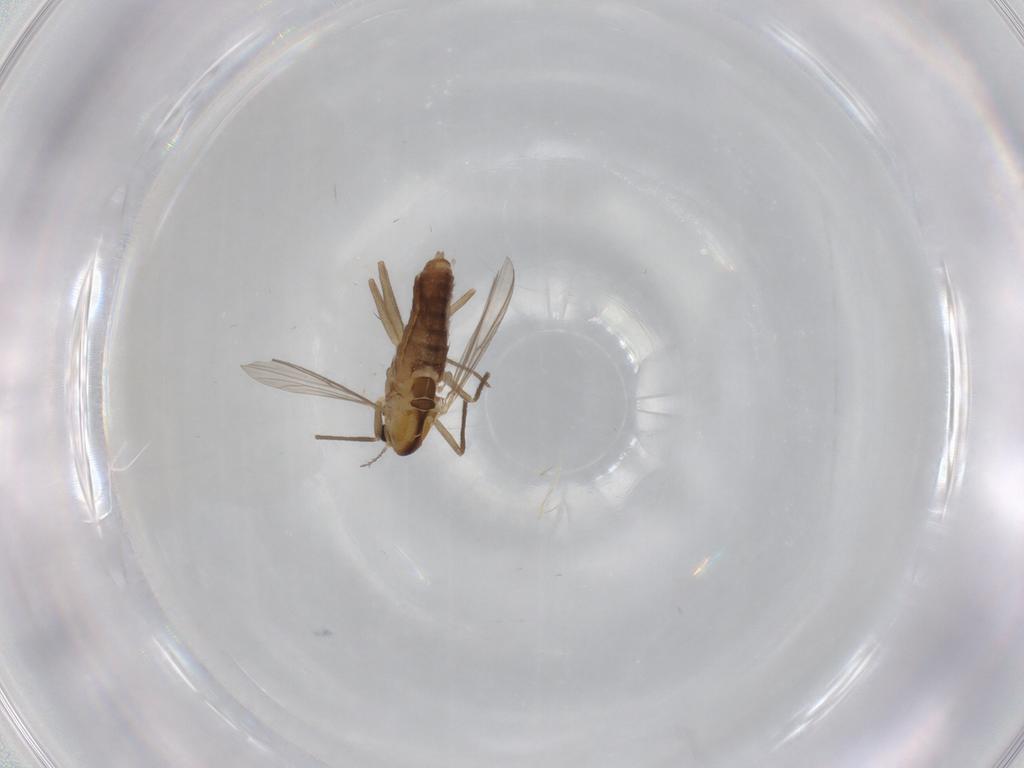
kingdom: Animalia
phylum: Arthropoda
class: Insecta
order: Diptera
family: Chironomidae
